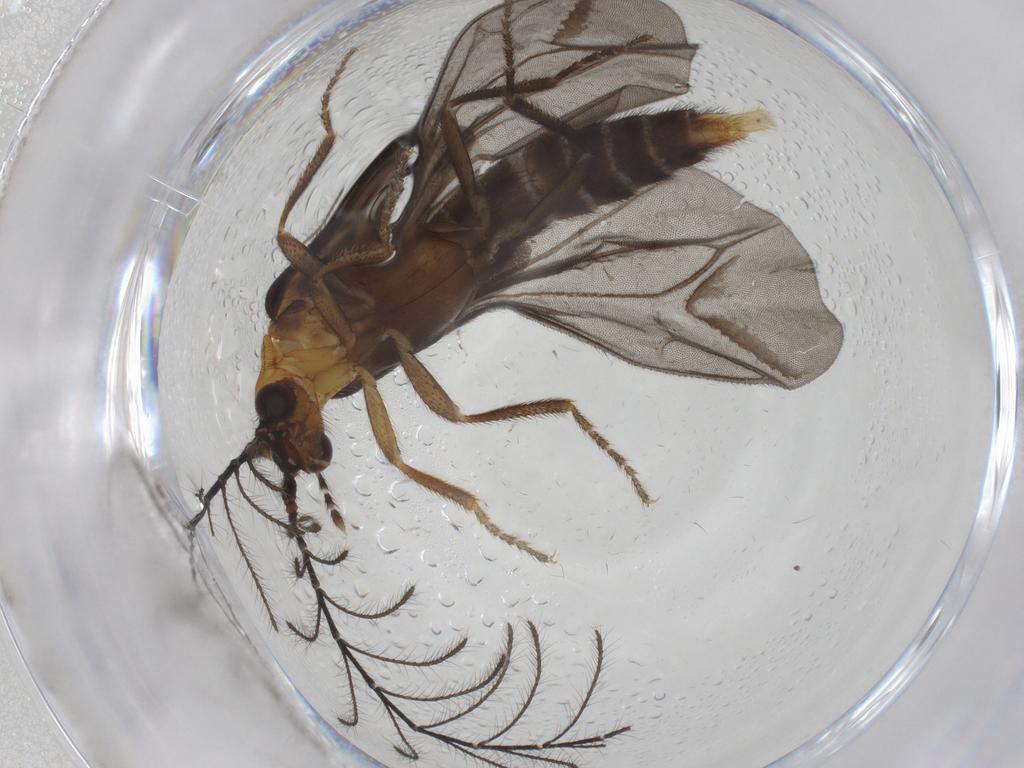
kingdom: Animalia
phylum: Arthropoda
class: Insecta
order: Coleoptera
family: Phengodidae
